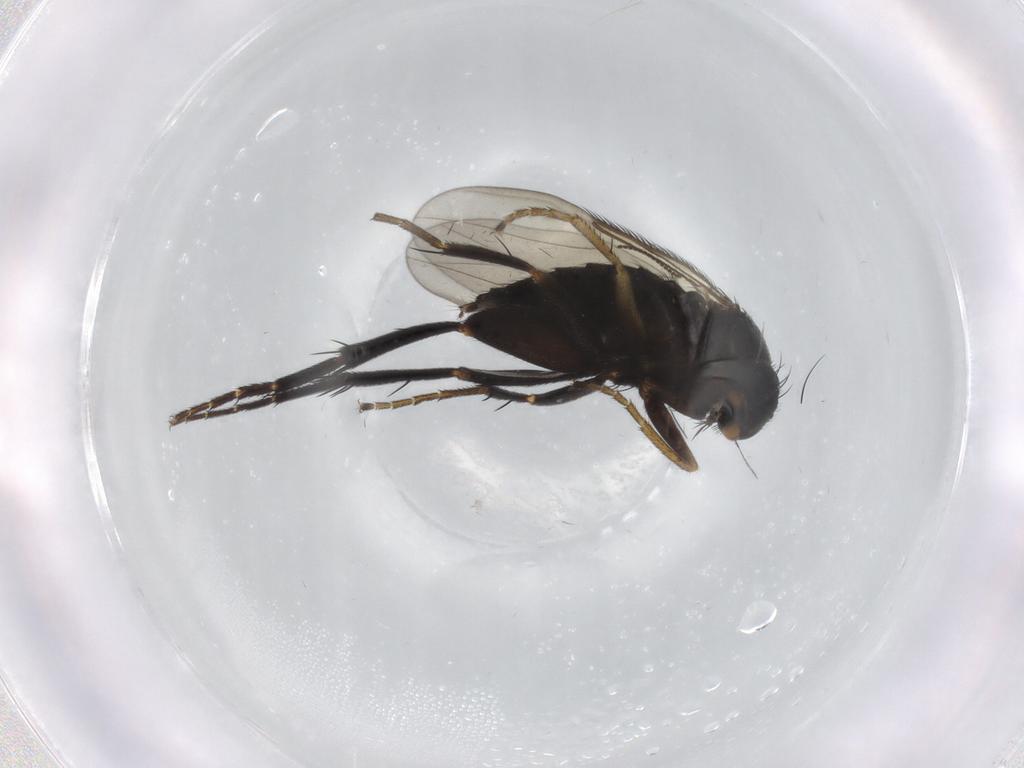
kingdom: Animalia
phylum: Arthropoda
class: Insecta
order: Diptera
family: Phoridae
